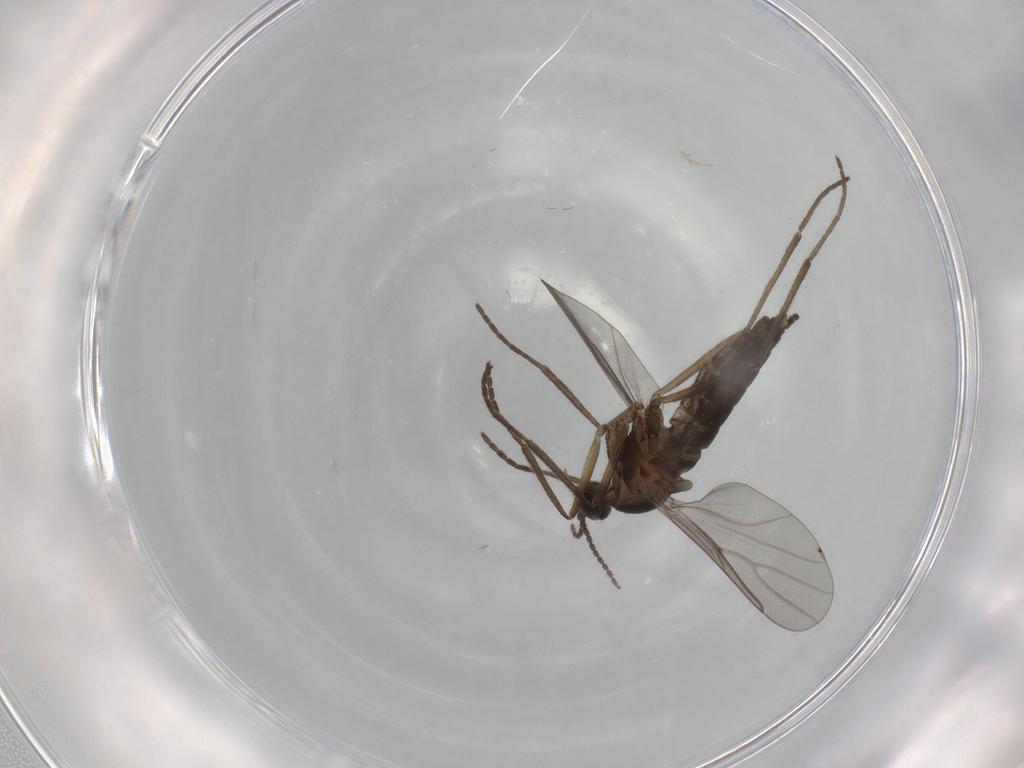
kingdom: Animalia
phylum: Arthropoda
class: Insecta
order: Diptera
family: Cecidomyiidae
